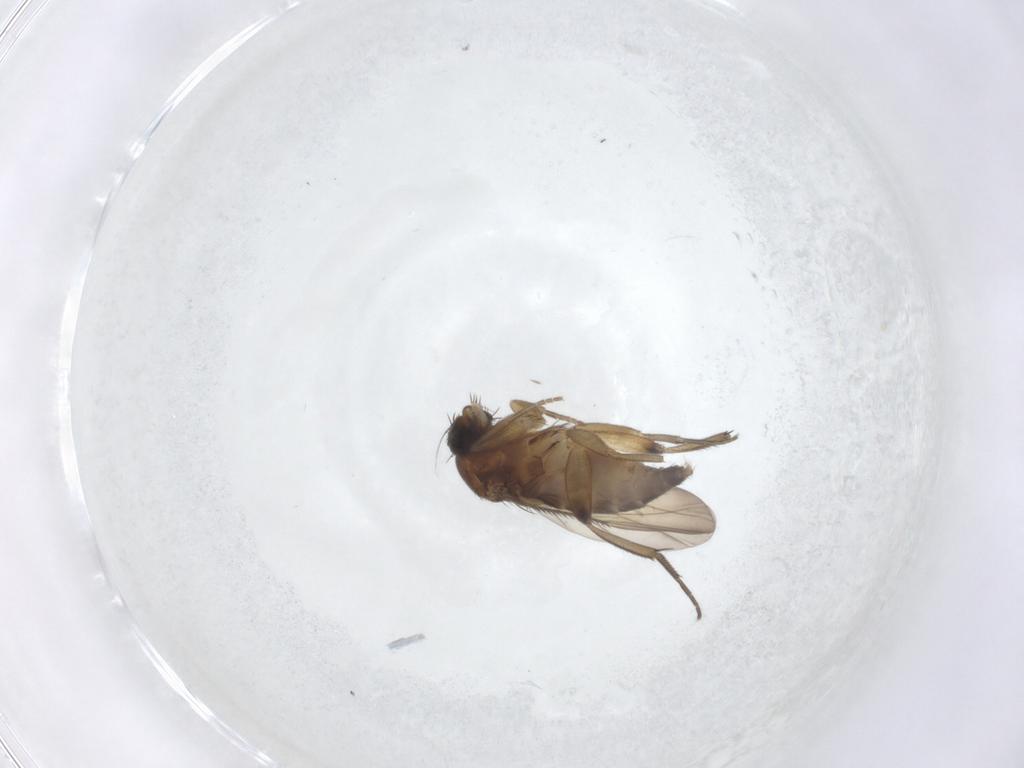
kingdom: Animalia
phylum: Arthropoda
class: Insecta
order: Diptera
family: Phoridae
